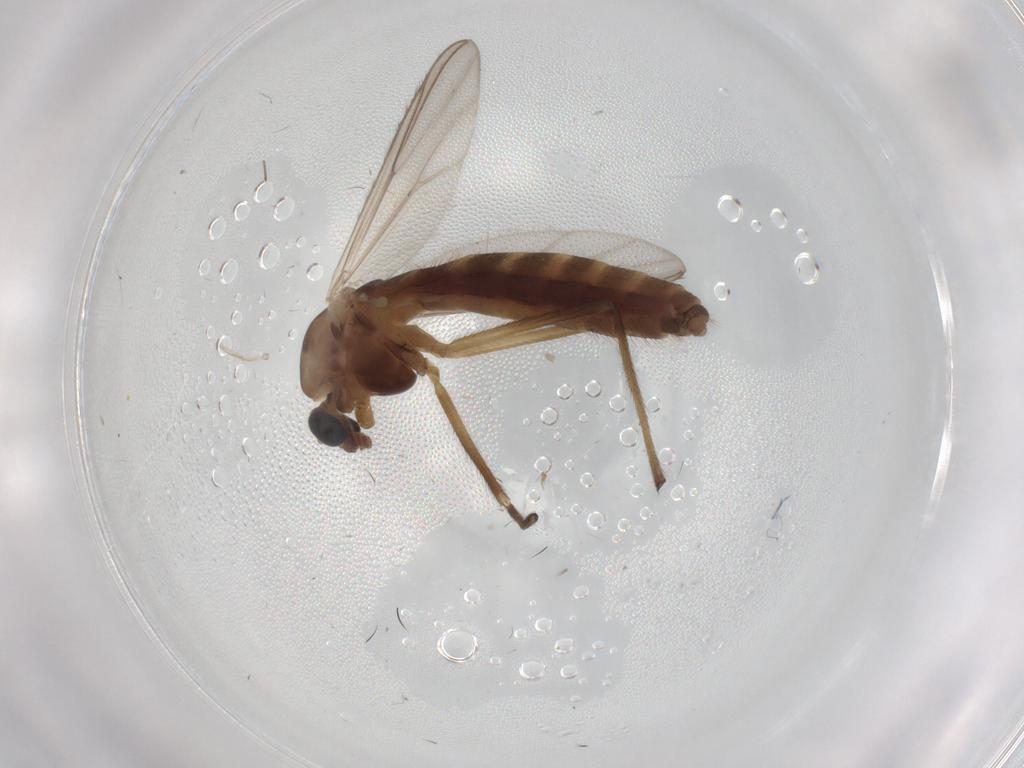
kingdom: Animalia
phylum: Arthropoda
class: Insecta
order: Diptera
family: Chironomidae
